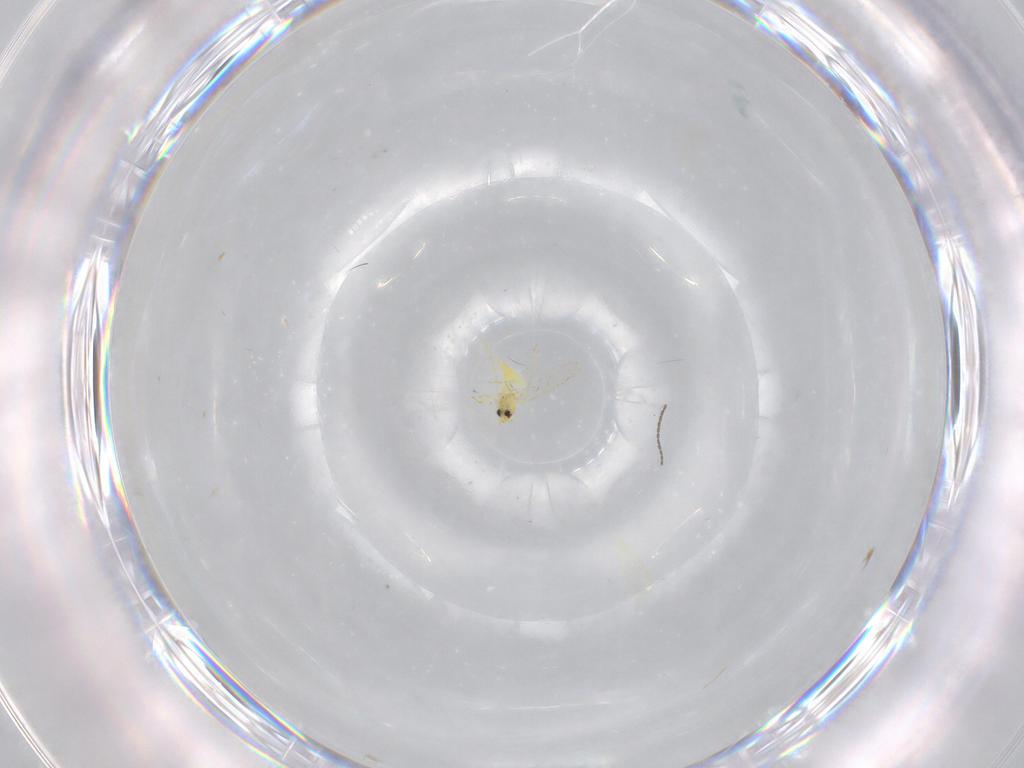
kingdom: Animalia
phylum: Arthropoda
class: Insecta
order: Hemiptera
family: Aleyrodidae
